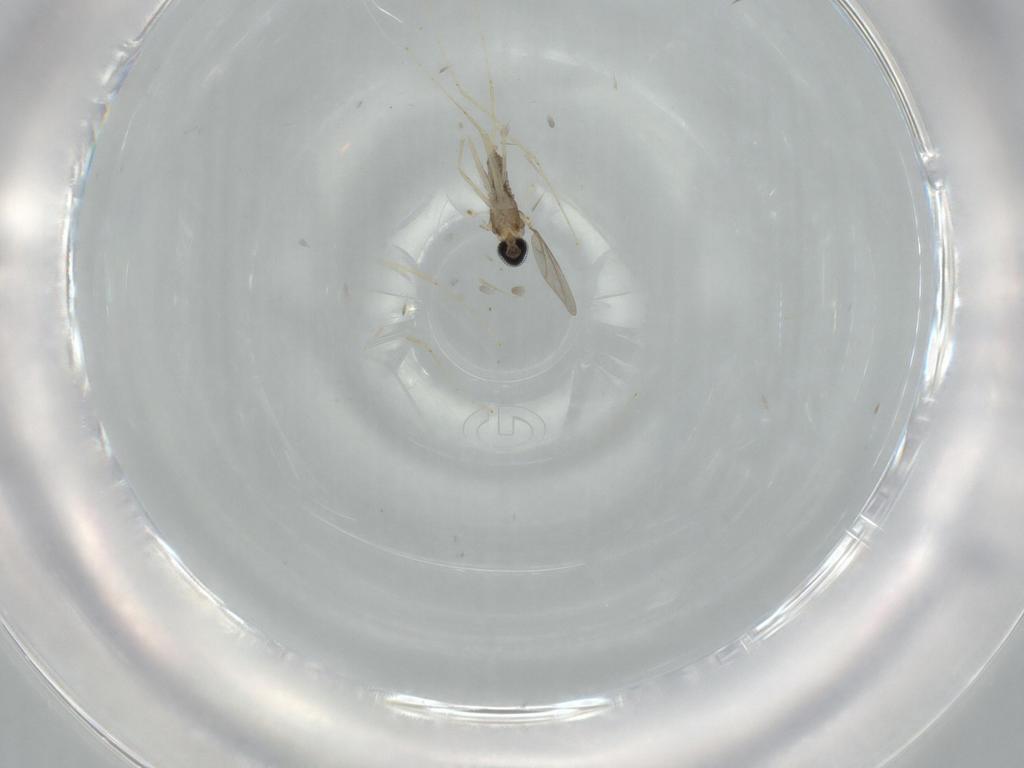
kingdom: Animalia
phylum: Arthropoda
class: Insecta
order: Diptera
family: Cecidomyiidae
